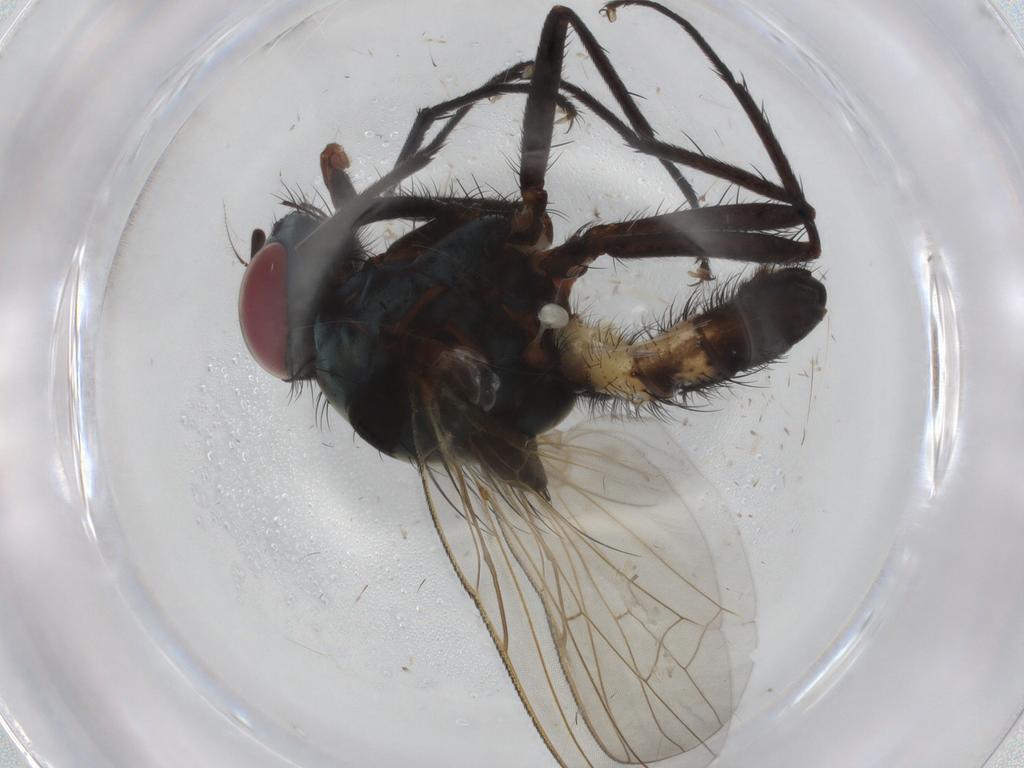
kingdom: Animalia
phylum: Arthropoda
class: Insecta
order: Diptera
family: Anthomyiidae
